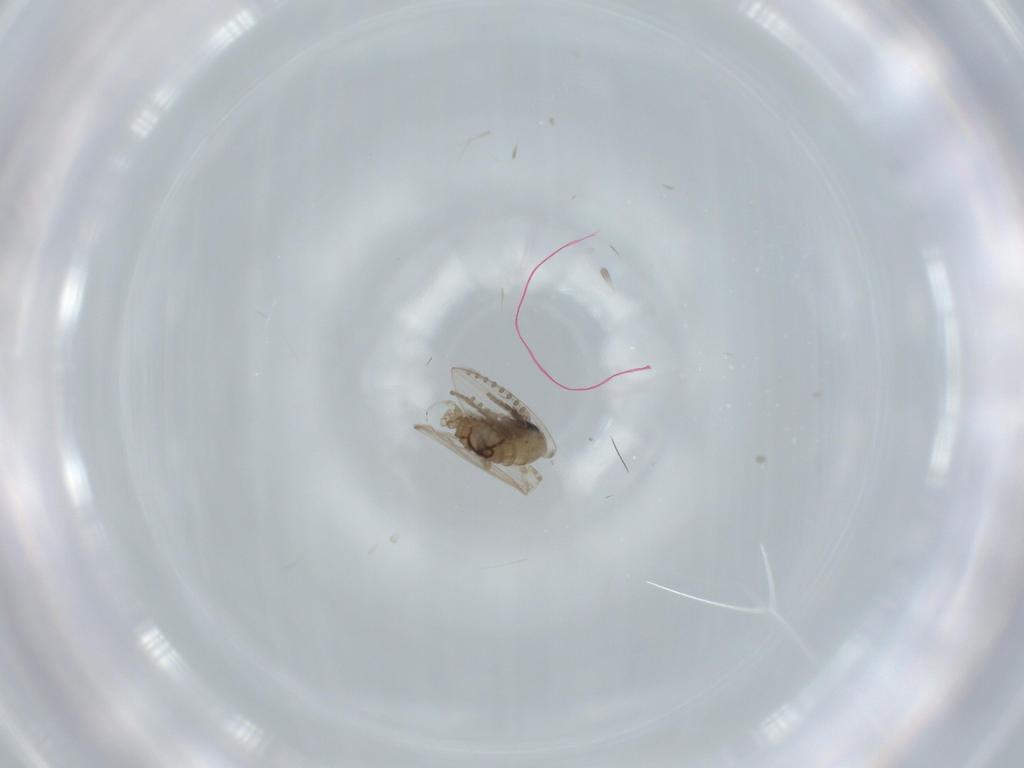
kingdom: Animalia
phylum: Arthropoda
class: Insecta
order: Diptera
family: Psychodidae
